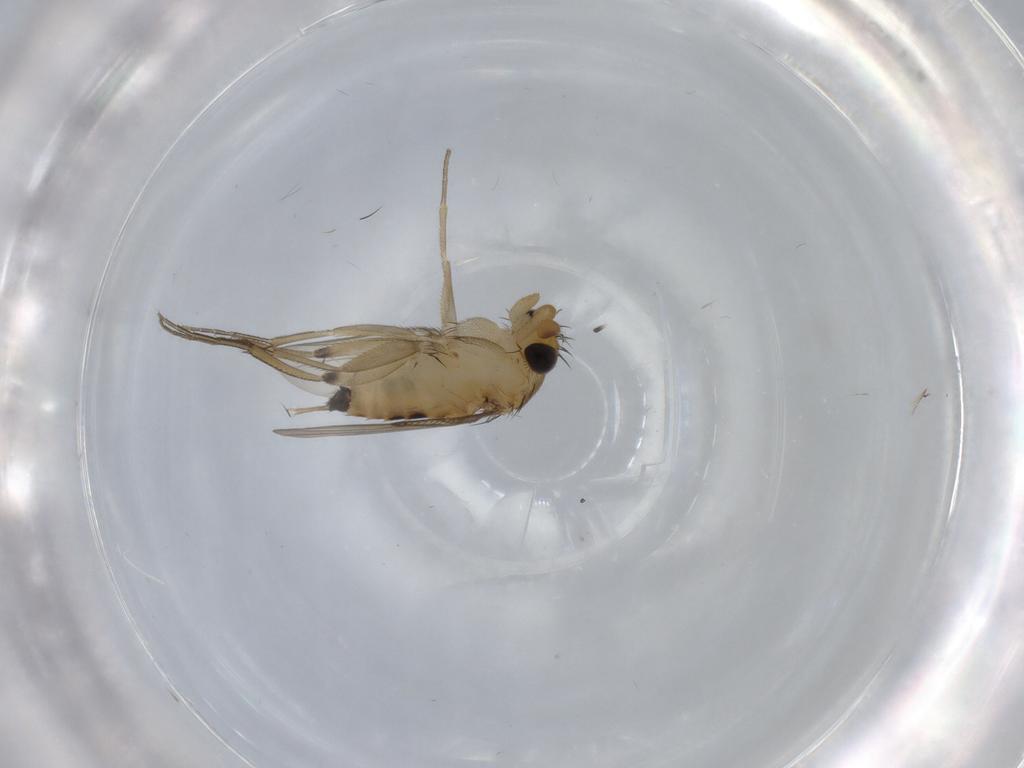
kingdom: Animalia
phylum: Arthropoda
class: Insecta
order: Diptera
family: Phoridae
